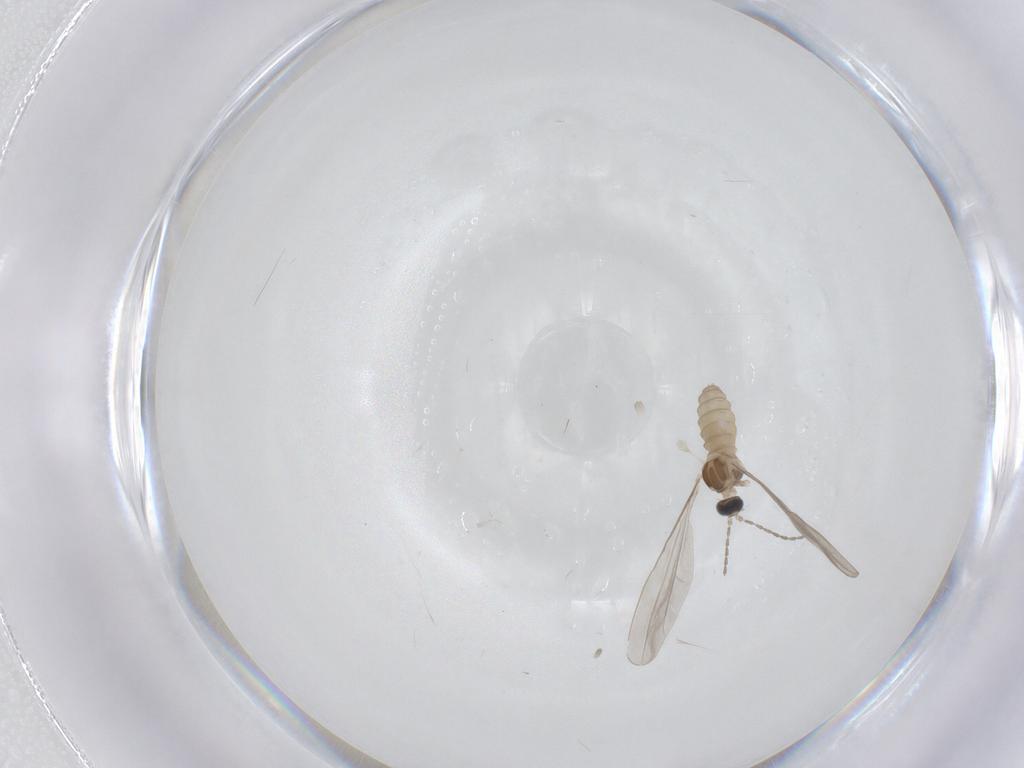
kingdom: Animalia
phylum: Arthropoda
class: Insecta
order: Diptera
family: Cecidomyiidae
